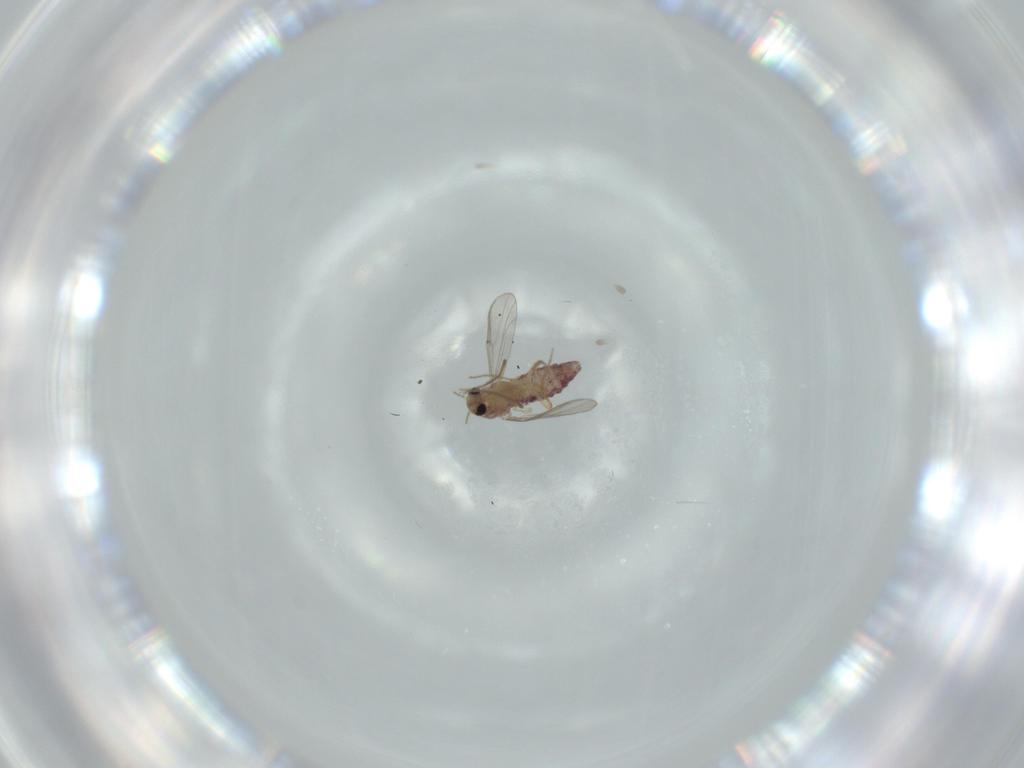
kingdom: Animalia
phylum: Arthropoda
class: Insecta
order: Diptera
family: Chironomidae
